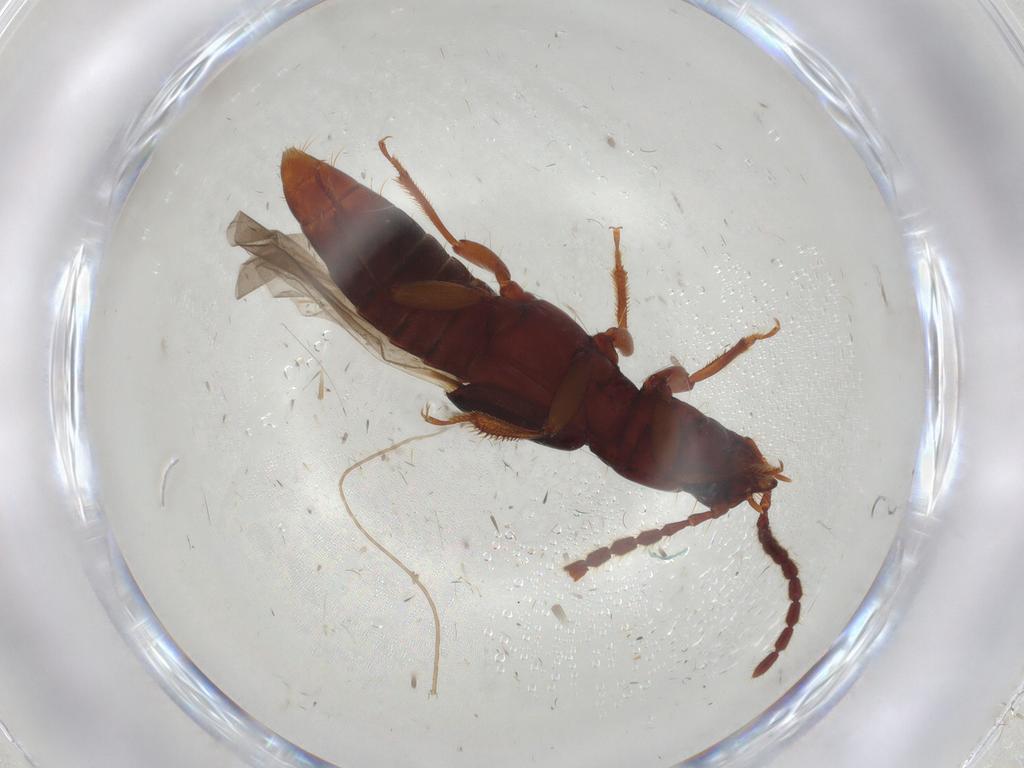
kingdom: Animalia
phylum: Arthropoda
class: Insecta
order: Coleoptera
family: Staphylinidae
